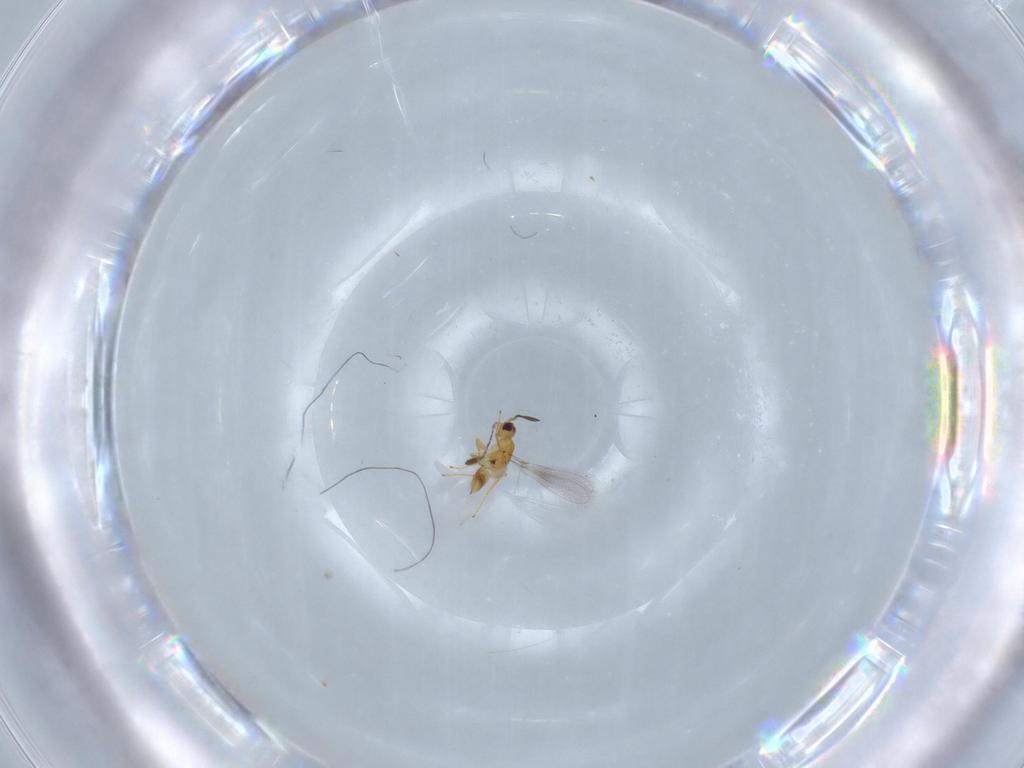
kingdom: Animalia
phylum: Arthropoda
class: Insecta
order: Hymenoptera
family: Mymaridae
